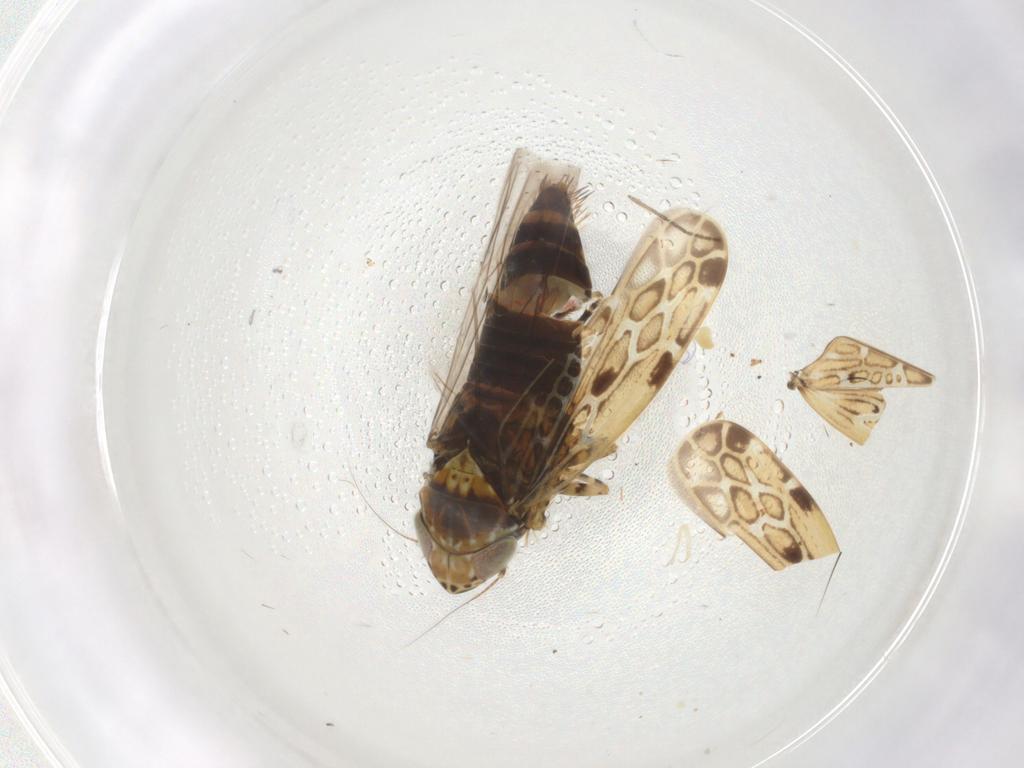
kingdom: Animalia
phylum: Arthropoda
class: Insecta
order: Hemiptera
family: Cicadellidae
